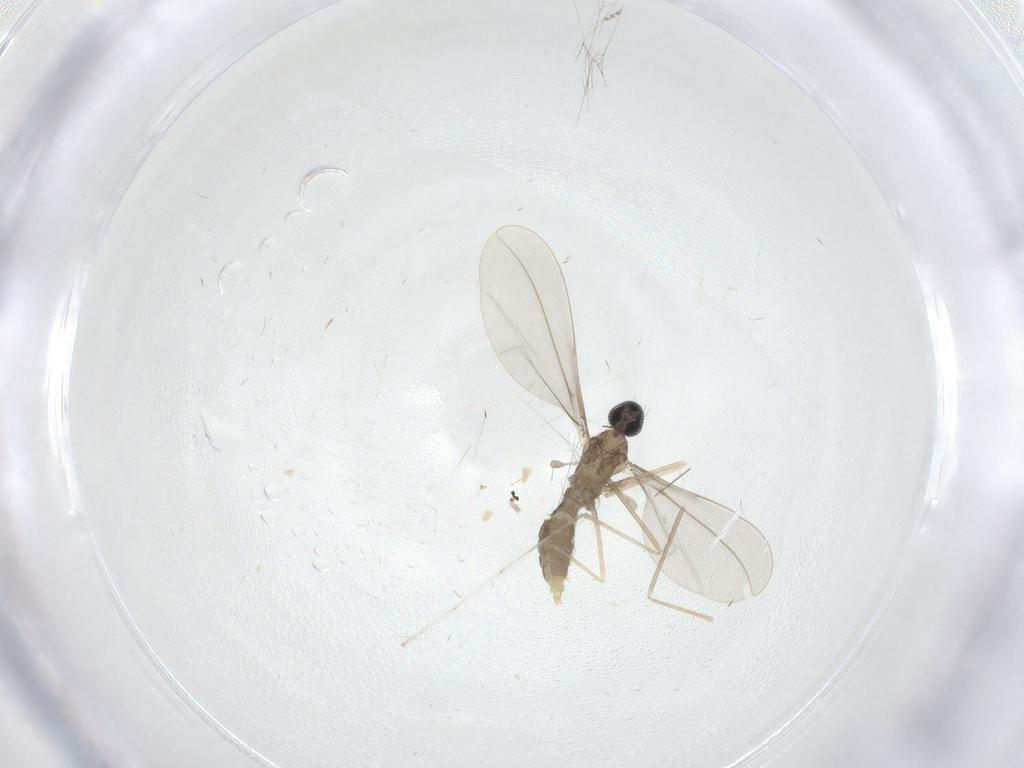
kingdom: Animalia
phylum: Arthropoda
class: Insecta
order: Diptera
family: Cecidomyiidae
